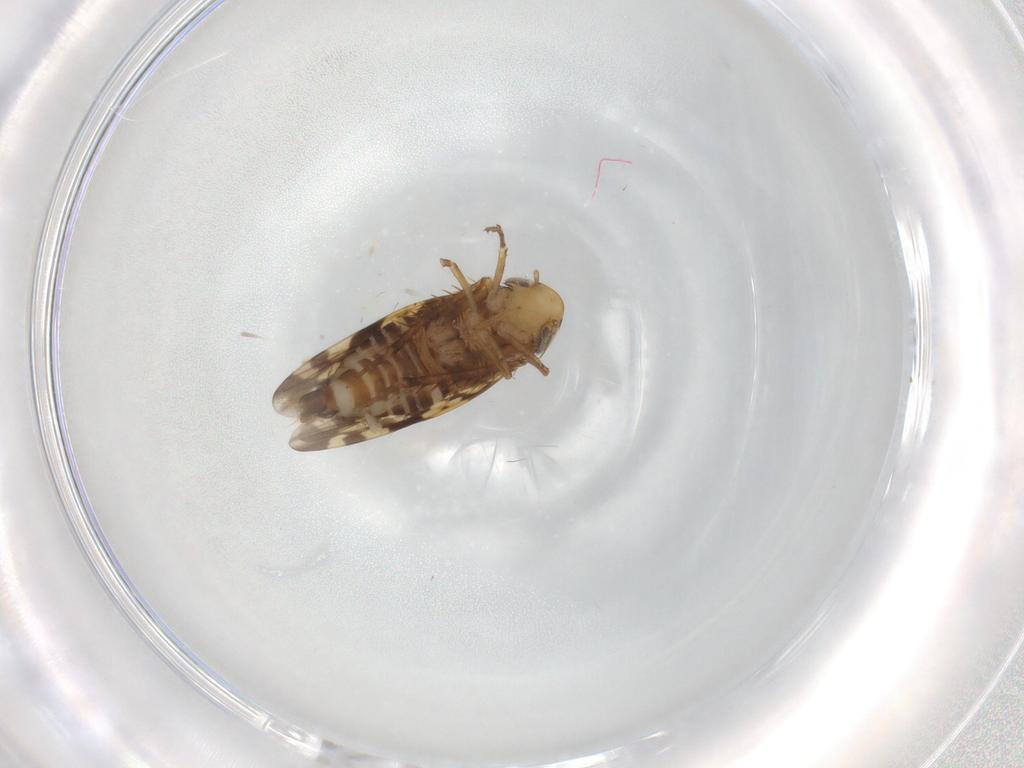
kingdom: Animalia
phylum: Arthropoda
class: Insecta
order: Hemiptera
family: Cicadellidae
